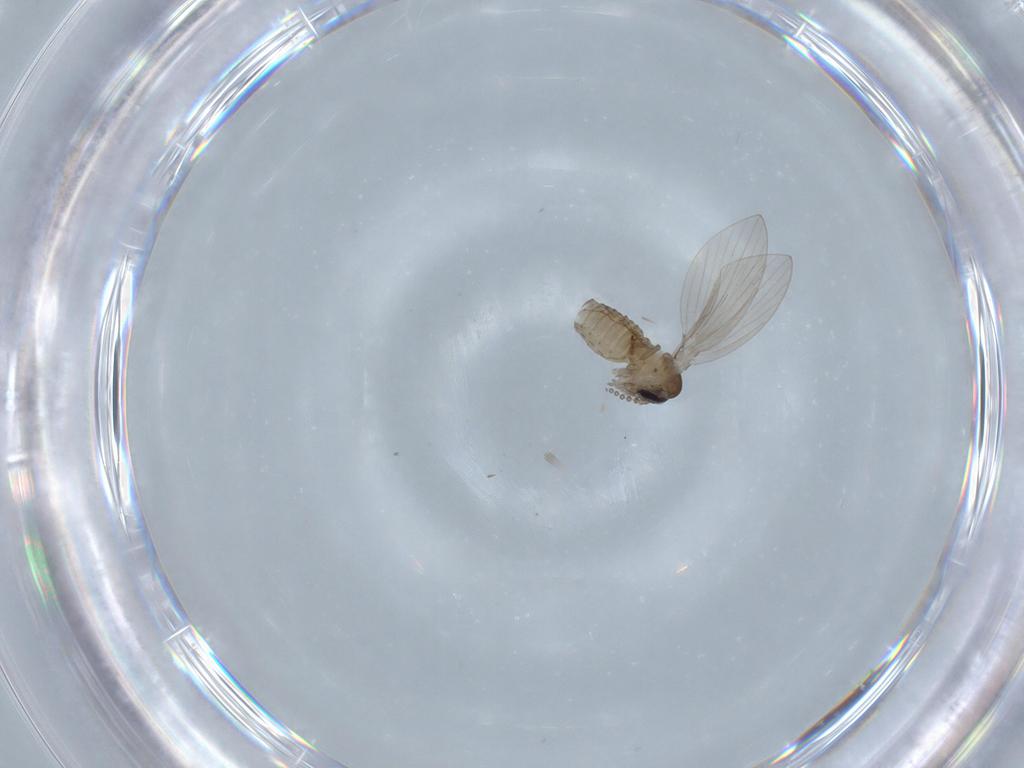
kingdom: Animalia
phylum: Arthropoda
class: Insecta
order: Diptera
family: Psychodidae
